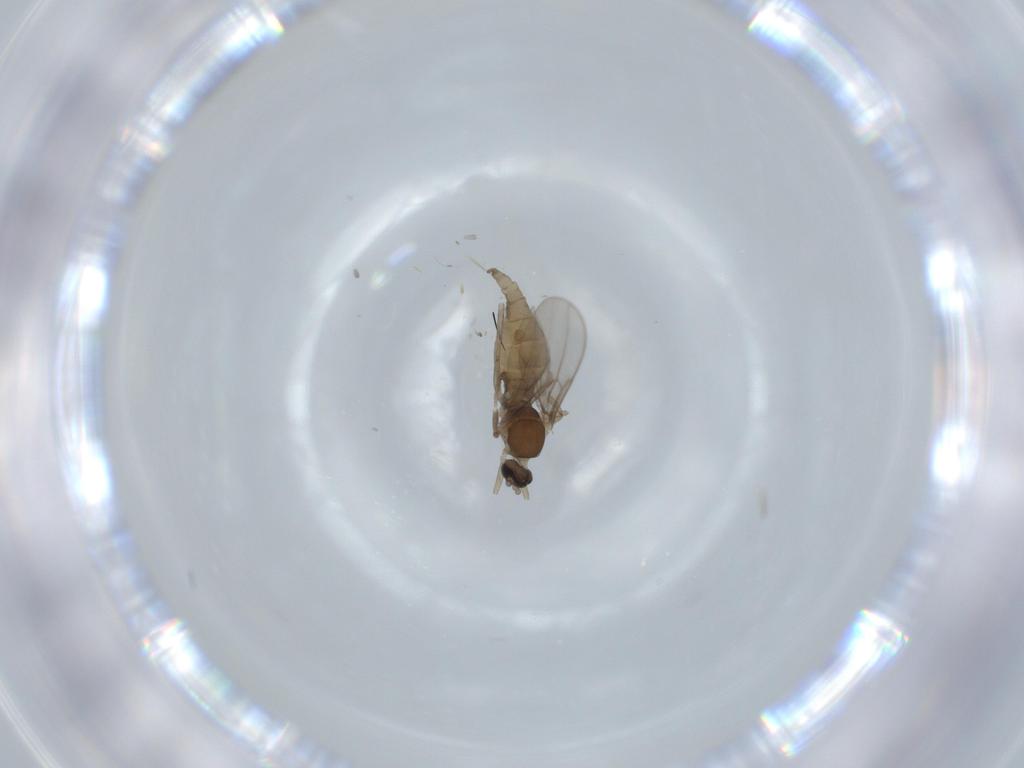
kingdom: Animalia
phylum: Arthropoda
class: Insecta
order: Diptera
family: Cecidomyiidae
